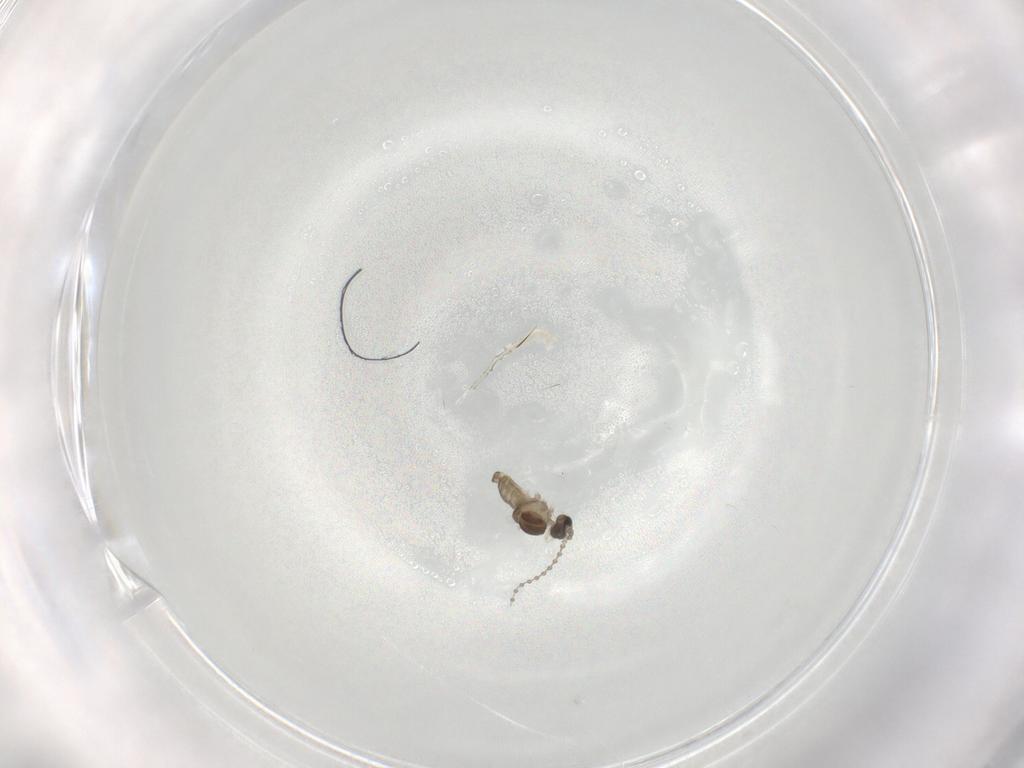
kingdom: Animalia
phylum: Arthropoda
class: Insecta
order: Diptera
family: Cecidomyiidae
